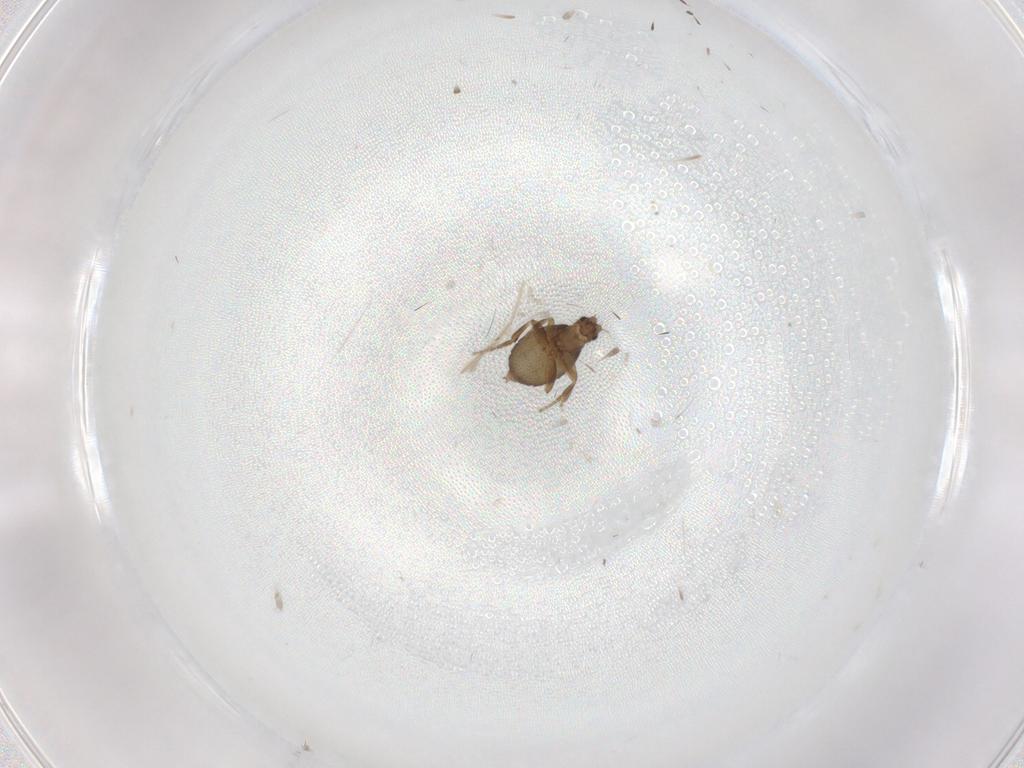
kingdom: Animalia
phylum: Arthropoda
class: Insecta
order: Diptera
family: Chironomidae
